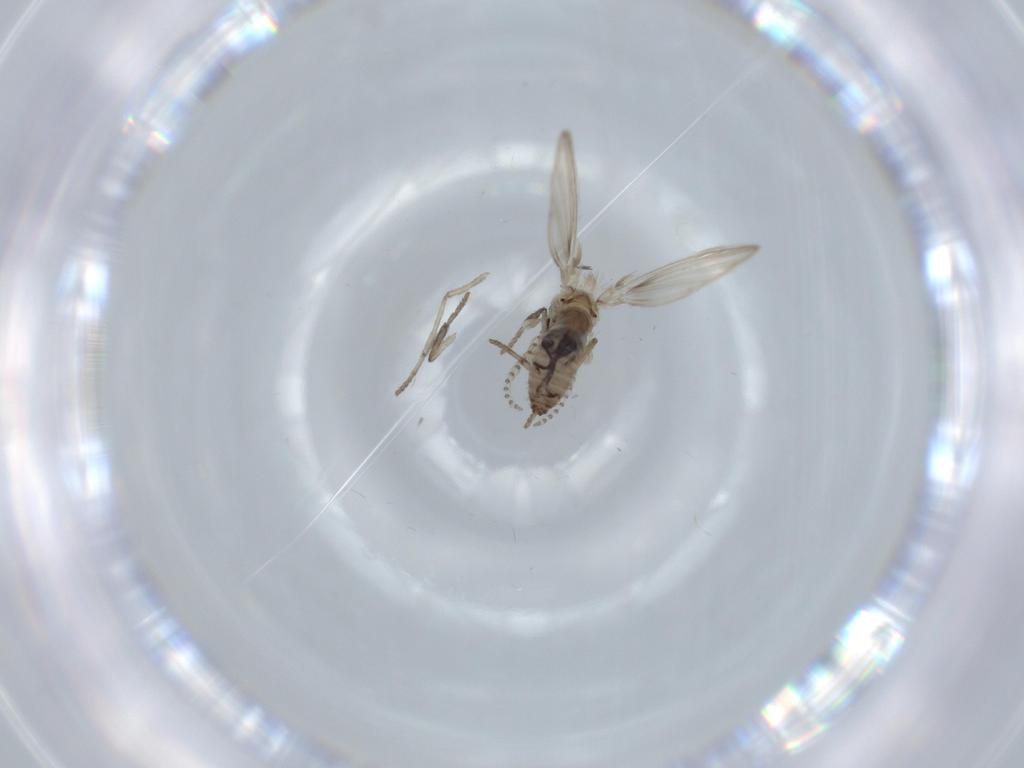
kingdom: Animalia
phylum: Arthropoda
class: Insecta
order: Diptera
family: Psychodidae
